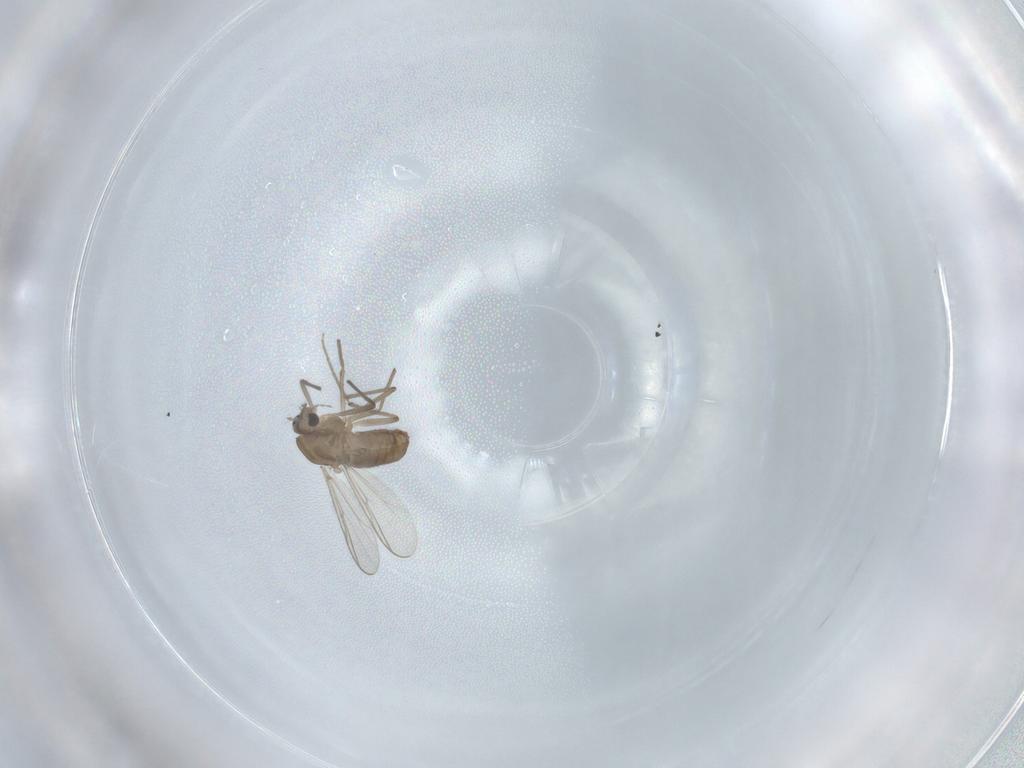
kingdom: Animalia
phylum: Arthropoda
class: Insecta
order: Diptera
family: Chironomidae
